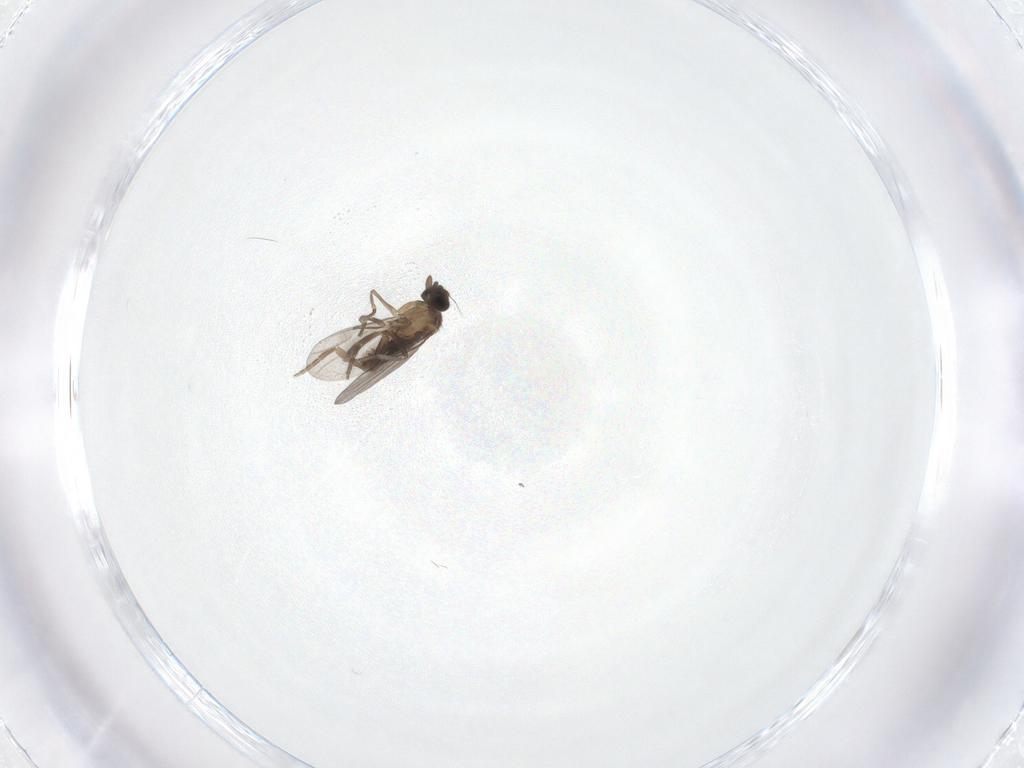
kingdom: Animalia
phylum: Arthropoda
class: Insecta
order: Diptera
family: Sciaridae
